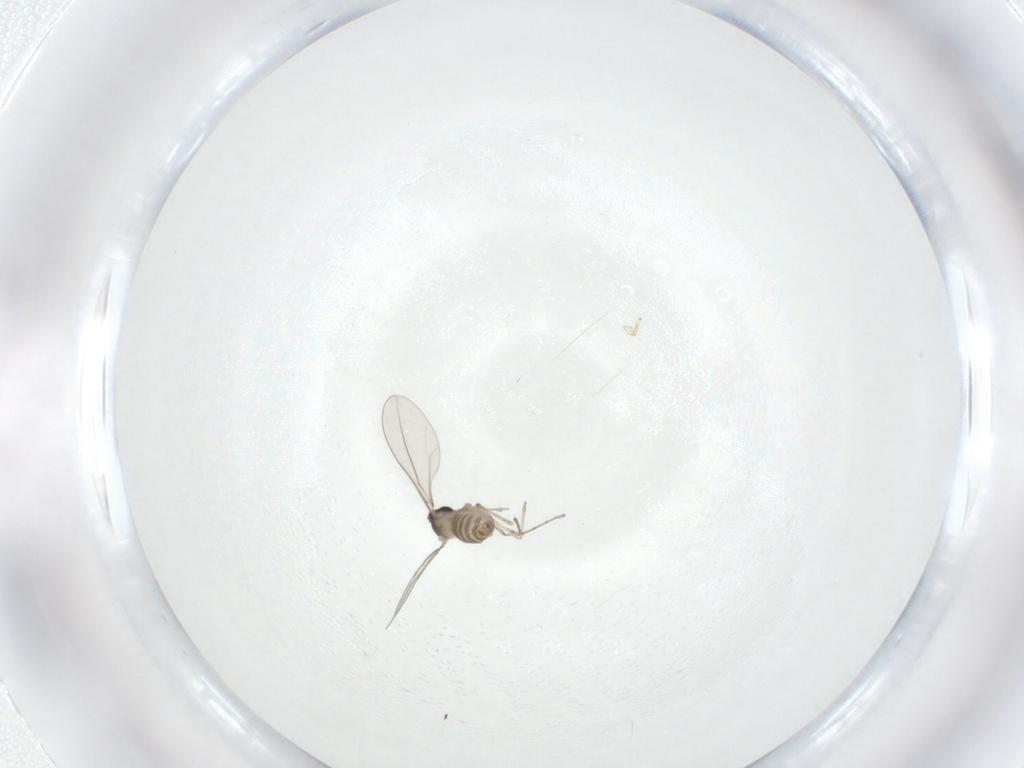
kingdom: Animalia
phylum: Arthropoda
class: Insecta
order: Diptera
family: Psychodidae
